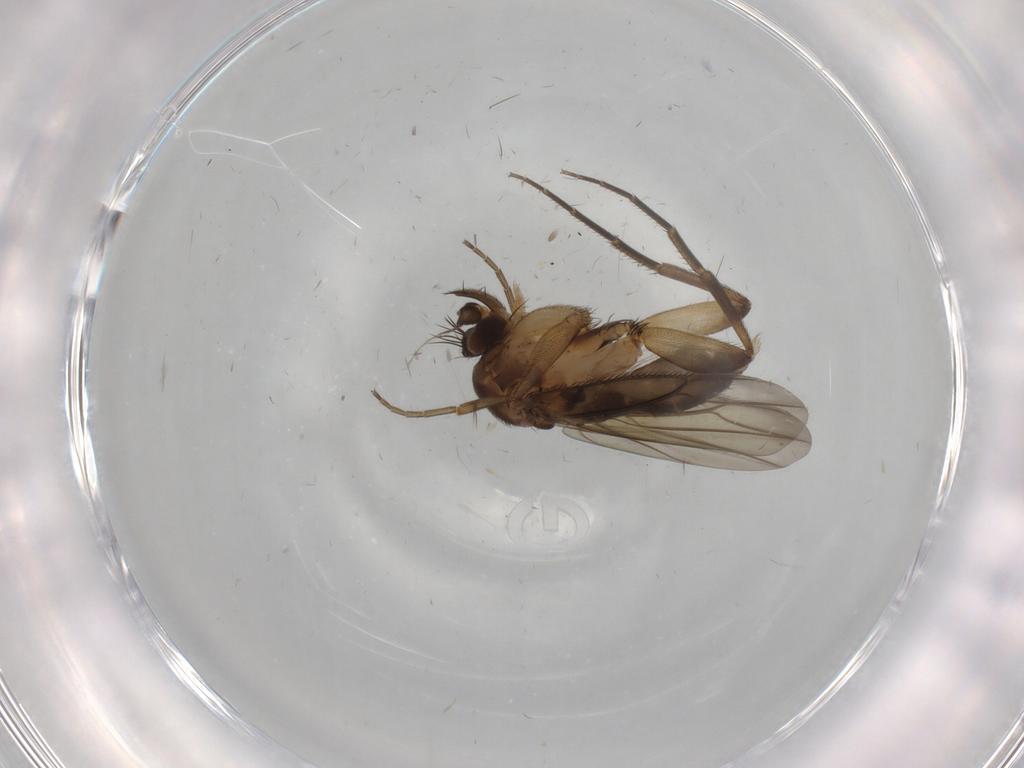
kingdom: Animalia
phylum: Arthropoda
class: Insecta
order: Diptera
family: Phoridae
